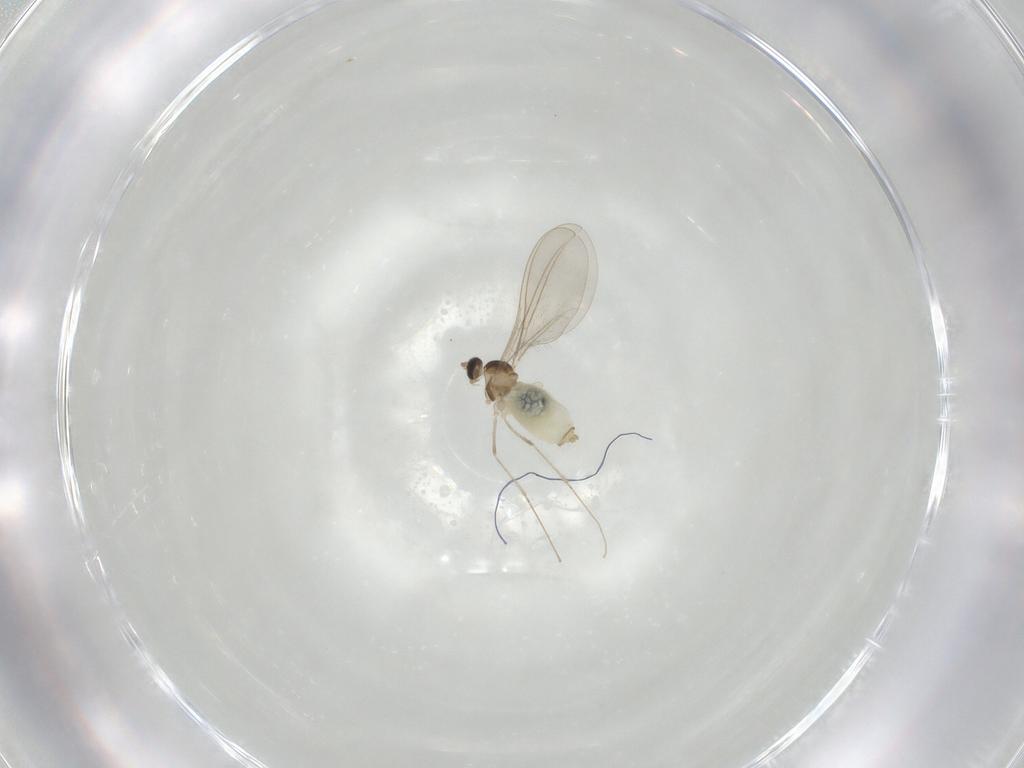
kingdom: Animalia
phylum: Arthropoda
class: Insecta
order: Diptera
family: Cecidomyiidae
